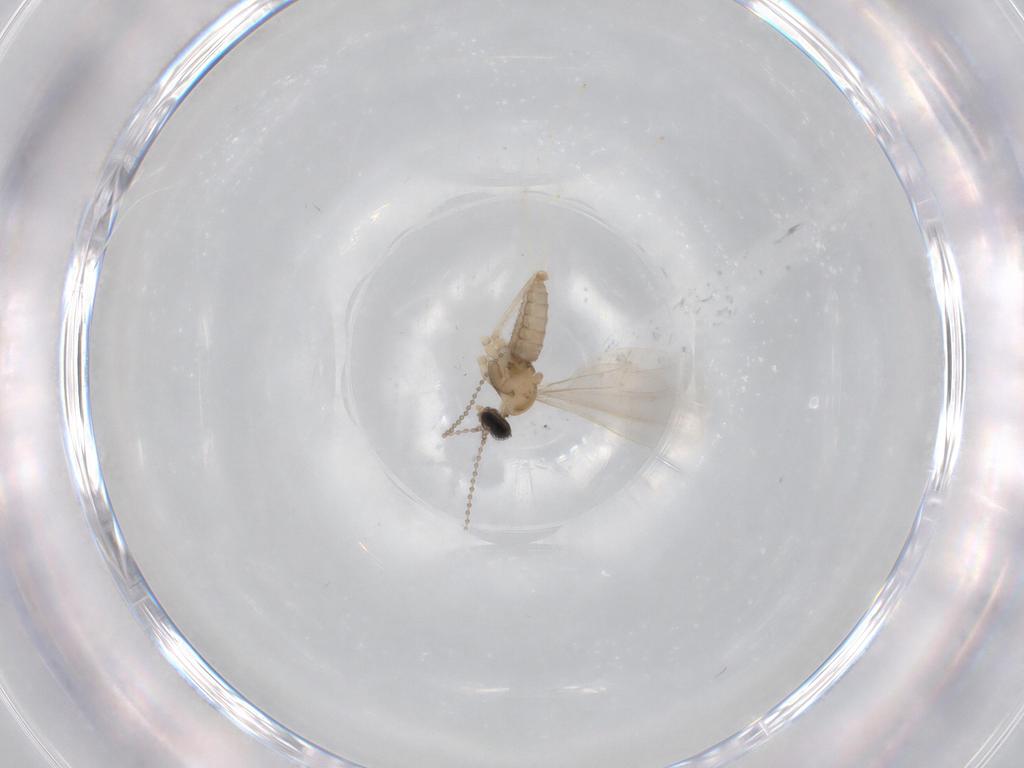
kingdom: Animalia
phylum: Arthropoda
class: Insecta
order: Diptera
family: Cecidomyiidae
